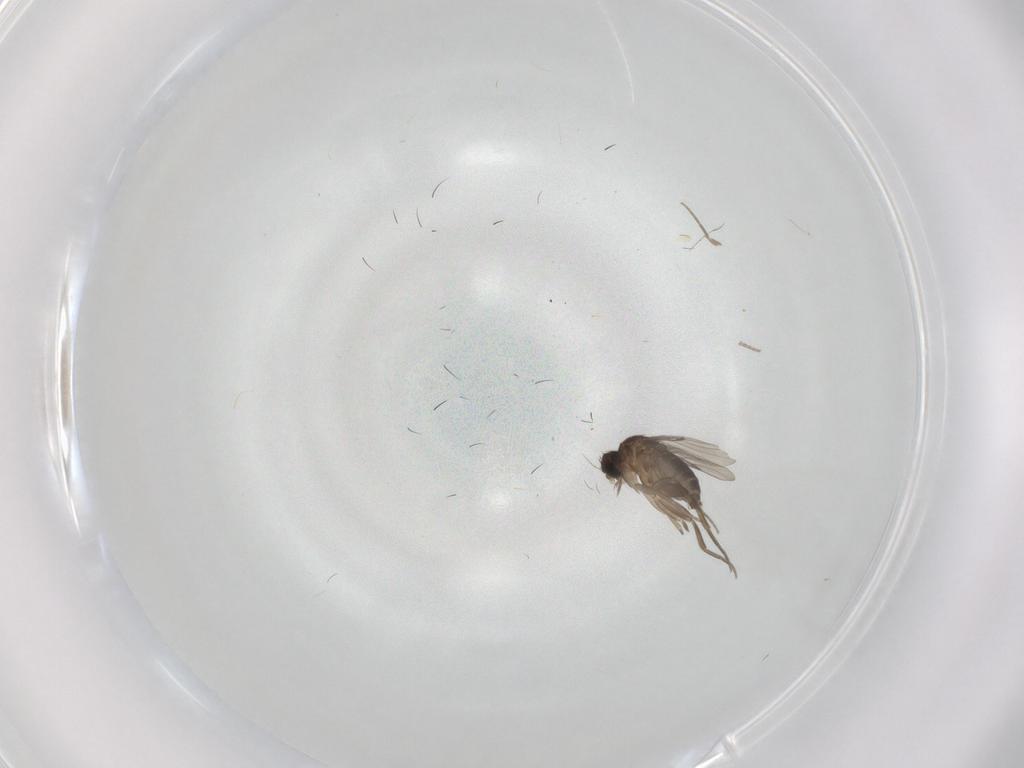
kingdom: Animalia
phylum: Arthropoda
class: Insecta
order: Diptera
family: Phoridae
